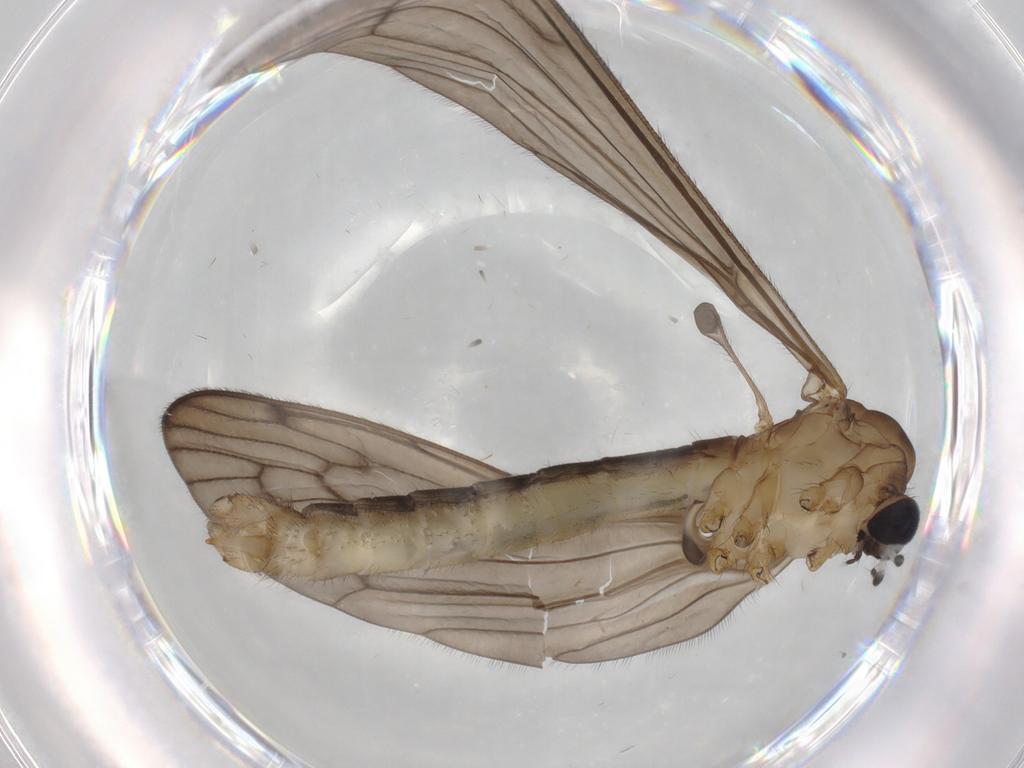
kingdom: Animalia
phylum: Arthropoda
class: Insecta
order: Diptera
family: Limoniidae
